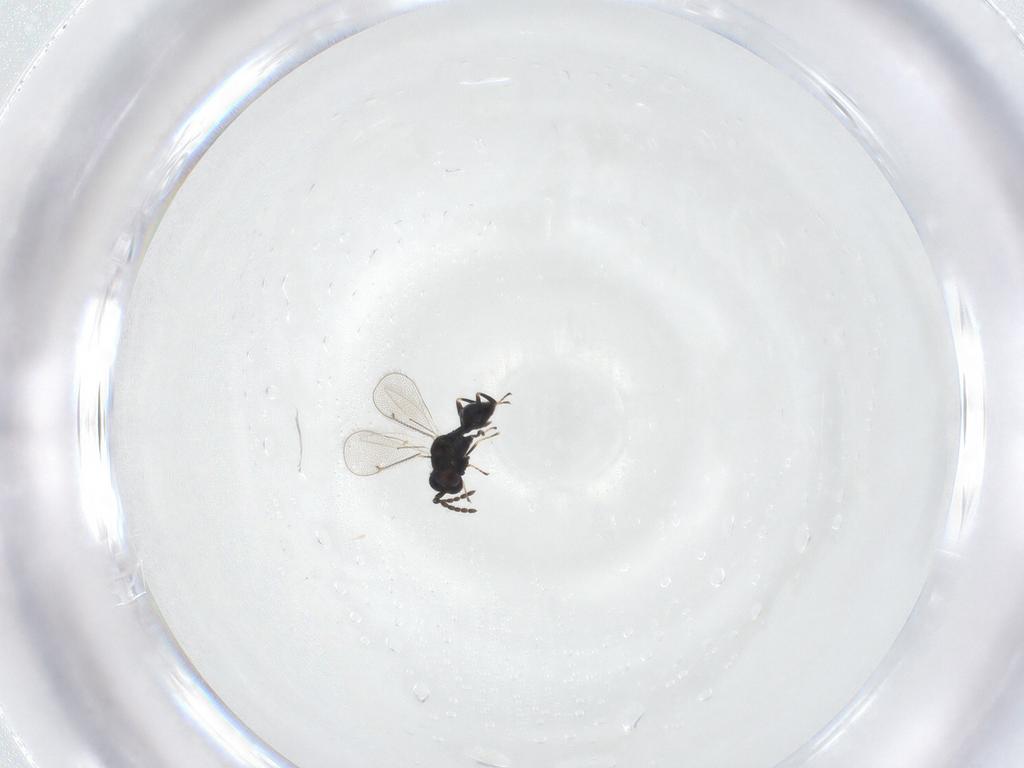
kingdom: Animalia
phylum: Arthropoda
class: Insecta
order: Hymenoptera
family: Eulophidae
